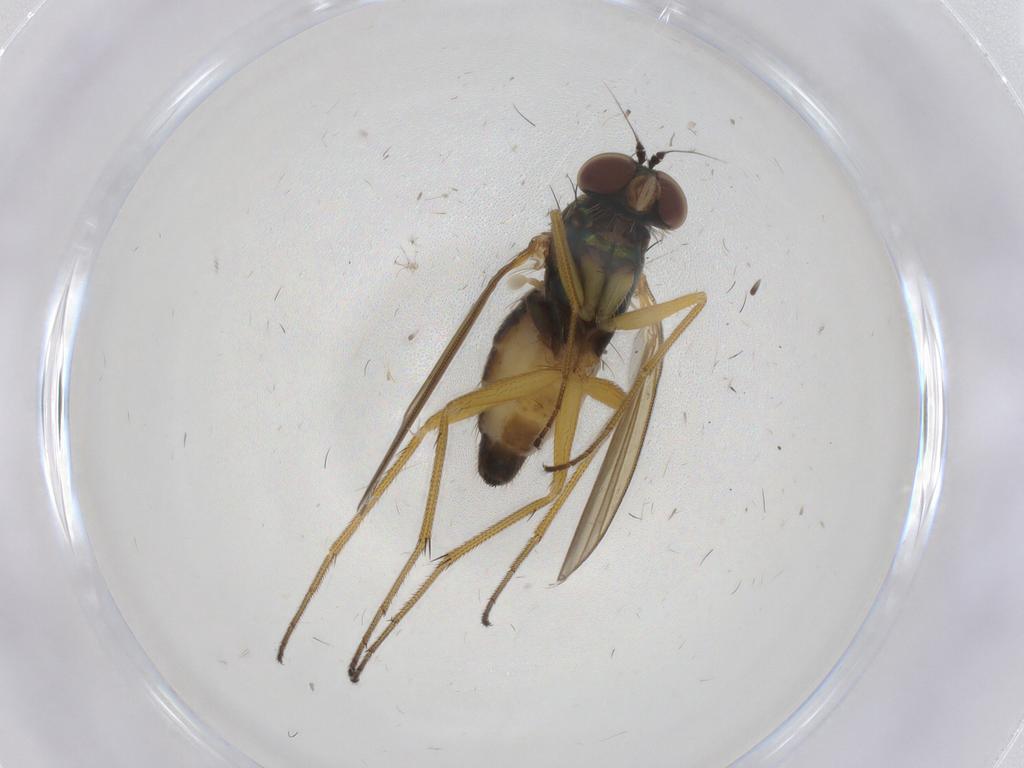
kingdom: Animalia
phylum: Arthropoda
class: Insecta
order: Diptera
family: Dolichopodidae
